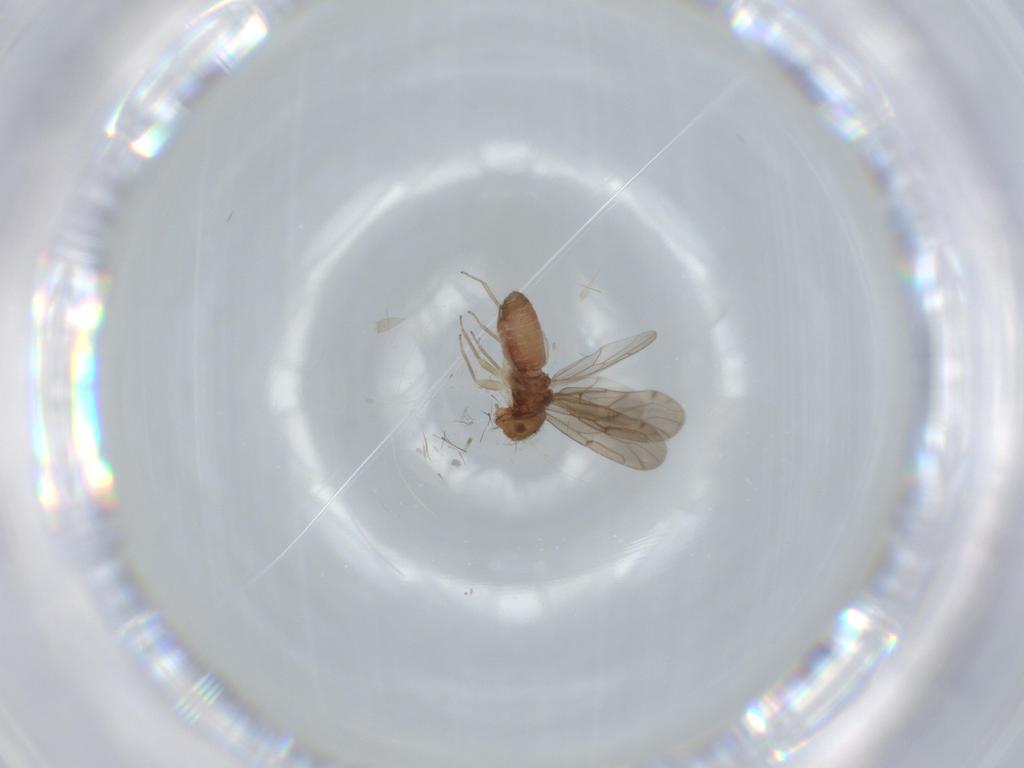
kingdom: Animalia
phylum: Arthropoda
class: Insecta
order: Psocodea
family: Ectopsocidae
